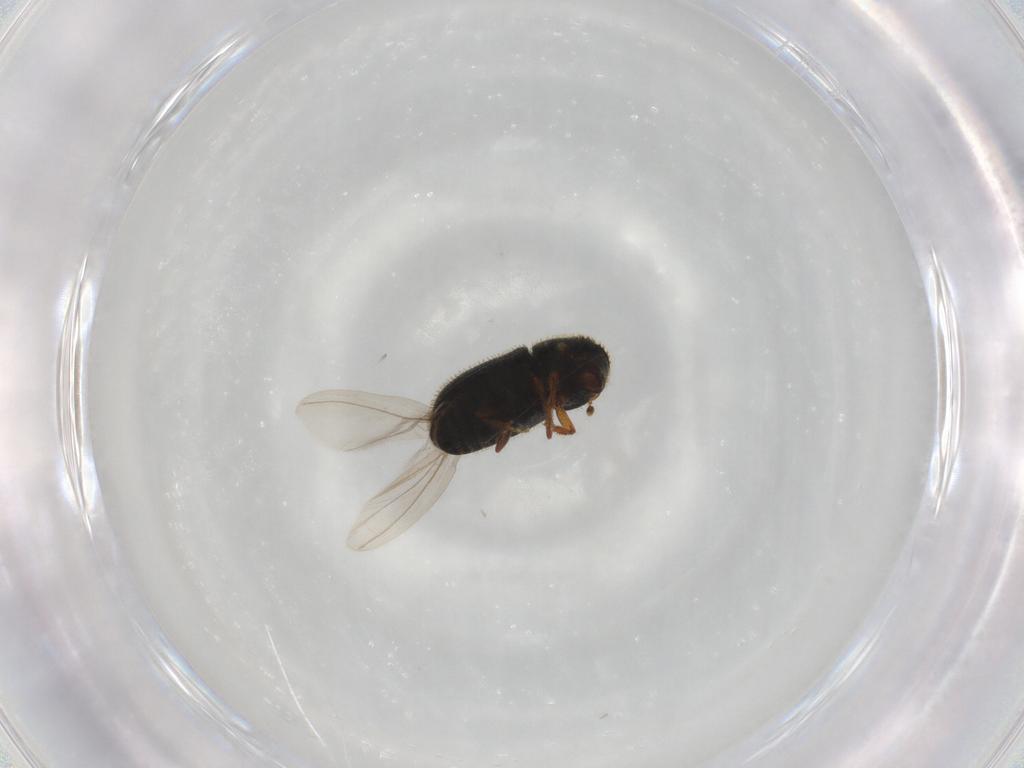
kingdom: Animalia
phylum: Arthropoda
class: Insecta
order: Coleoptera
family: Curculionidae
